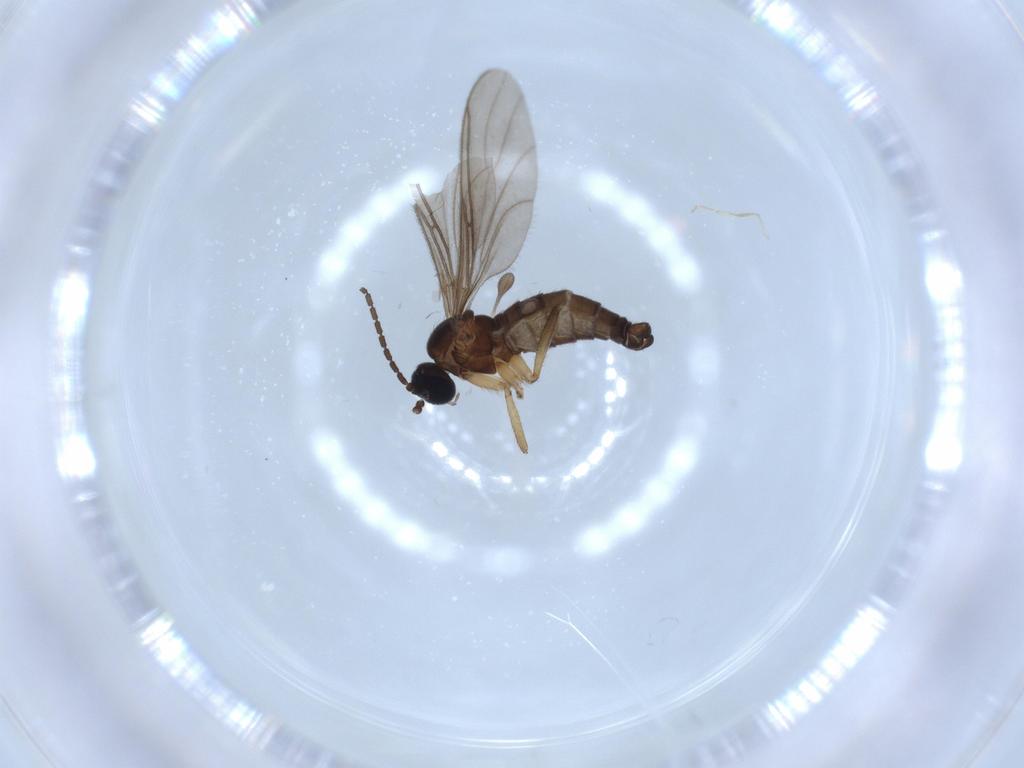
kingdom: Animalia
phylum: Arthropoda
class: Insecta
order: Diptera
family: Sciaridae
